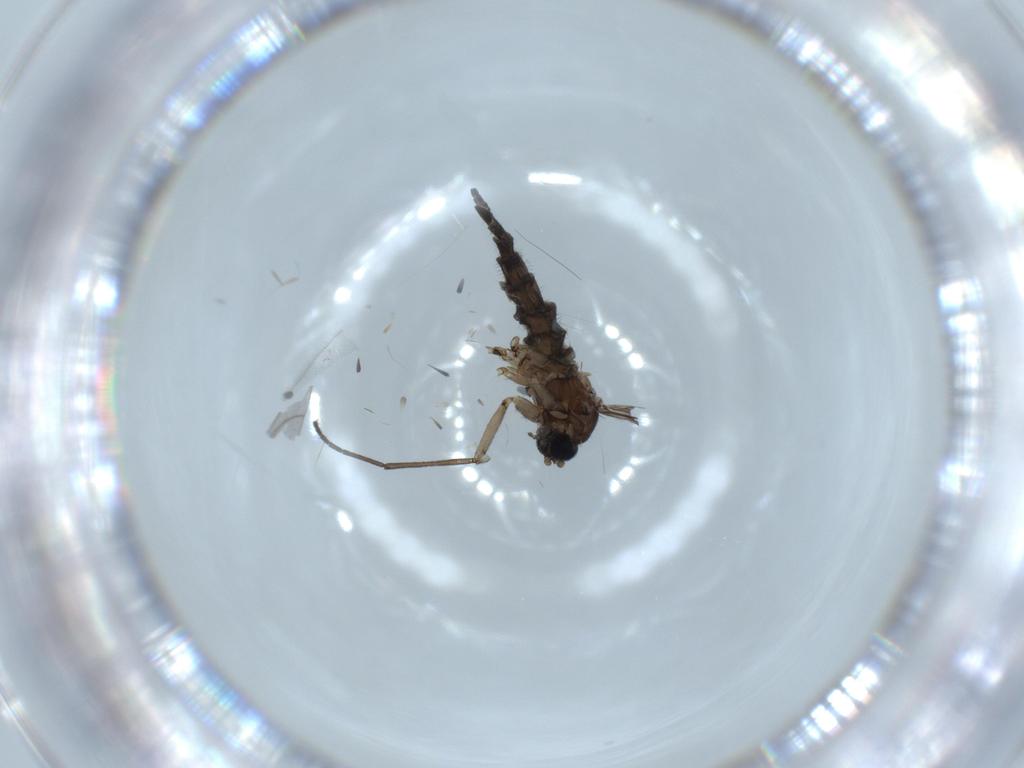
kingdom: Animalia
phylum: Arthropoda
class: Insecta
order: Diptera
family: Sciaridae
